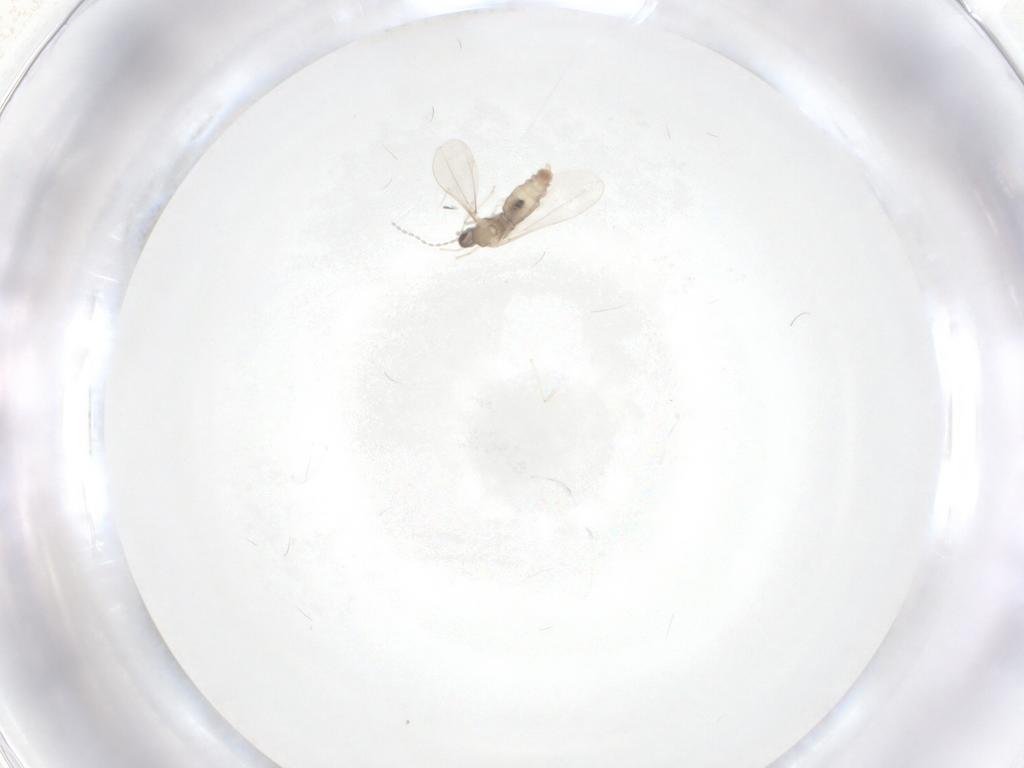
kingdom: Animalia
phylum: Arthropoda
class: Insecta
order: Diptera
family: Cecidomyiidae
